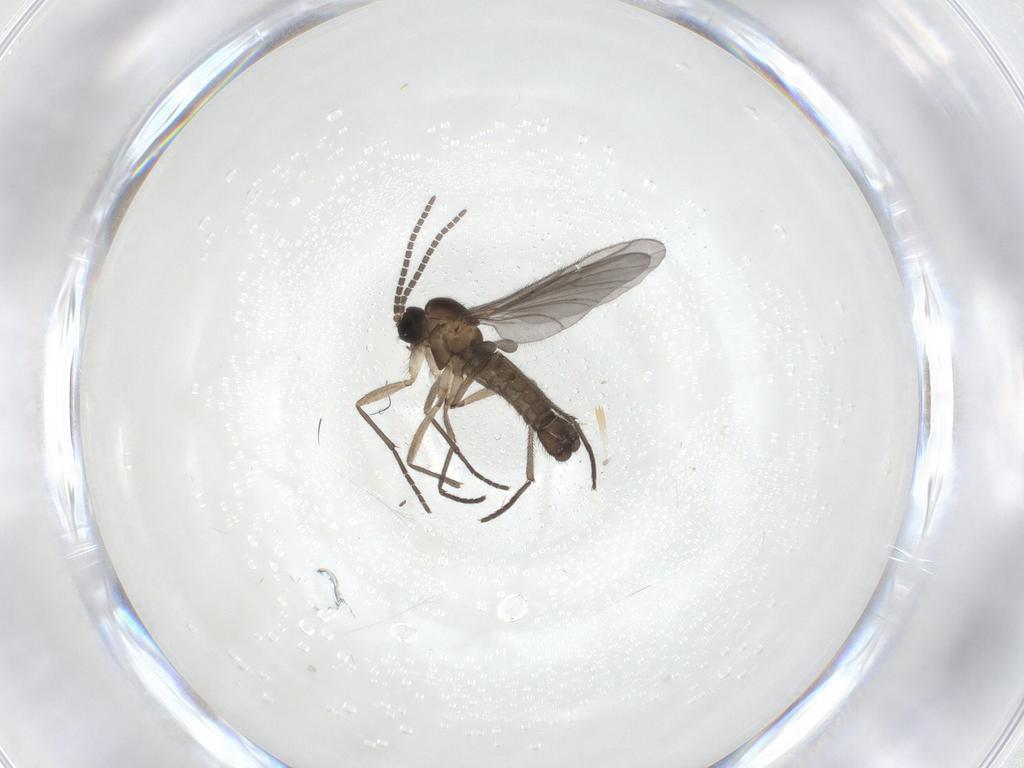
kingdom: Animalia
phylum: Arthropoda
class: Insecta
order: Diptera
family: Sciaridae
